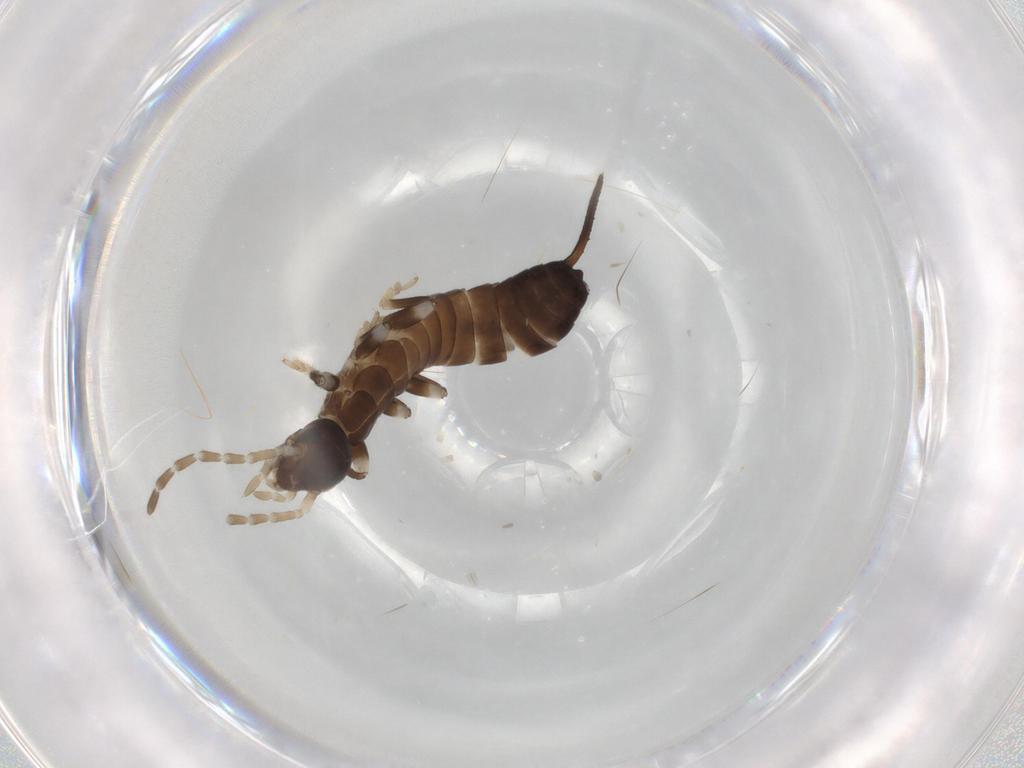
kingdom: Animalia
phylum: Arthropoda
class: Insecta
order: Dermaptera
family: Forficulidae
